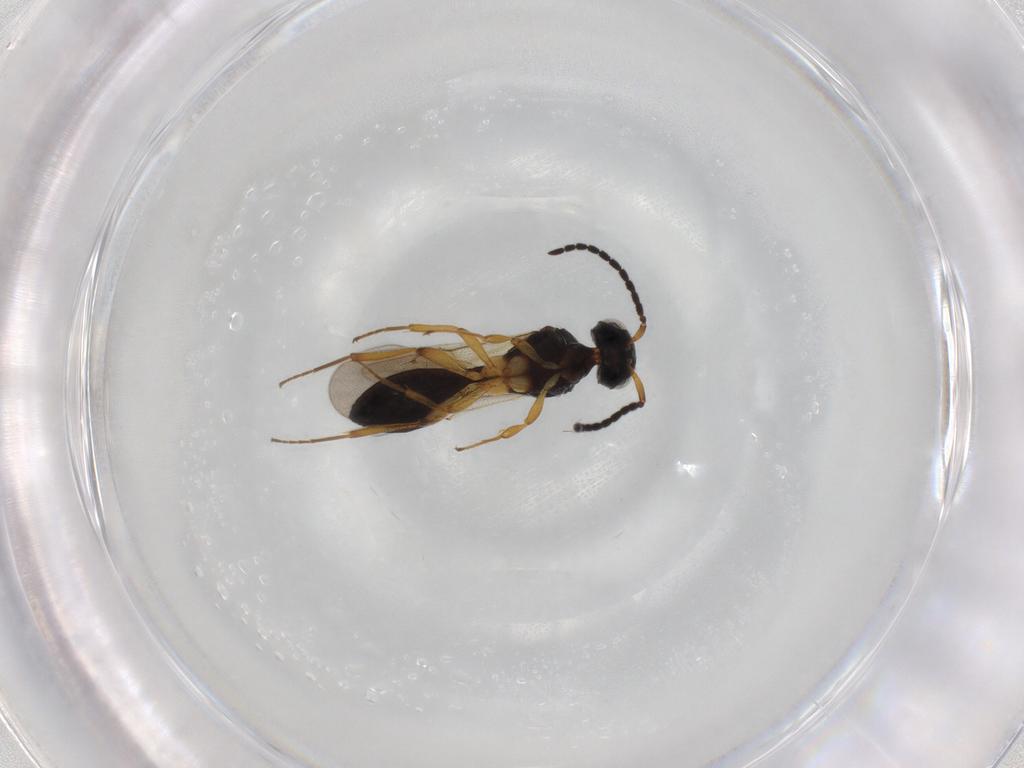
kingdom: Animalia
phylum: Arthropoda
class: Insecta
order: Hymenoptera
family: Scelionidae
